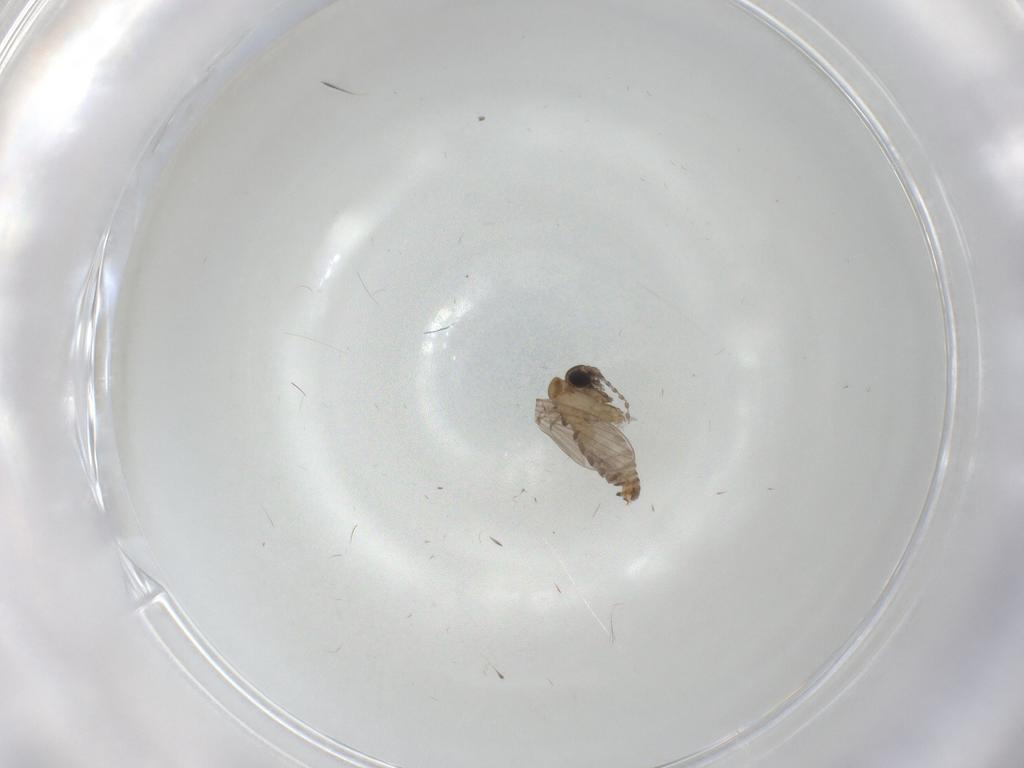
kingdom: Animalia
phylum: Arthropoda
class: Insecta
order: Diptera
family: Psychodidae
